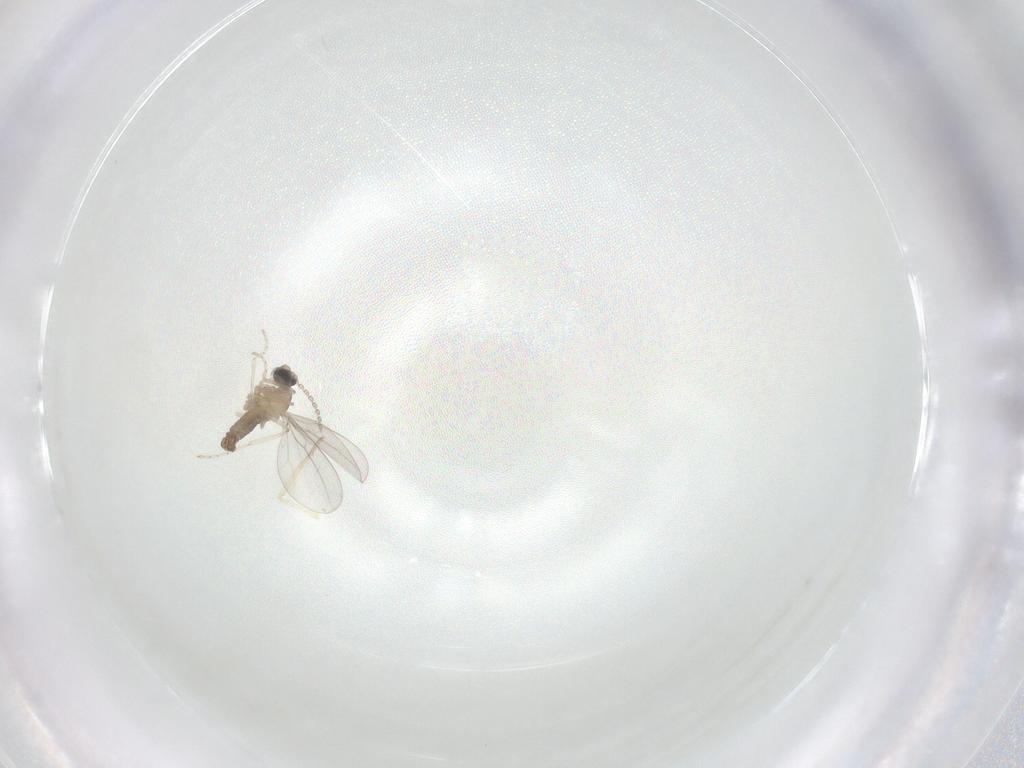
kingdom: Animalia
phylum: Arthropoda
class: Insecta
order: Diptera
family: Cecidomyiidae
